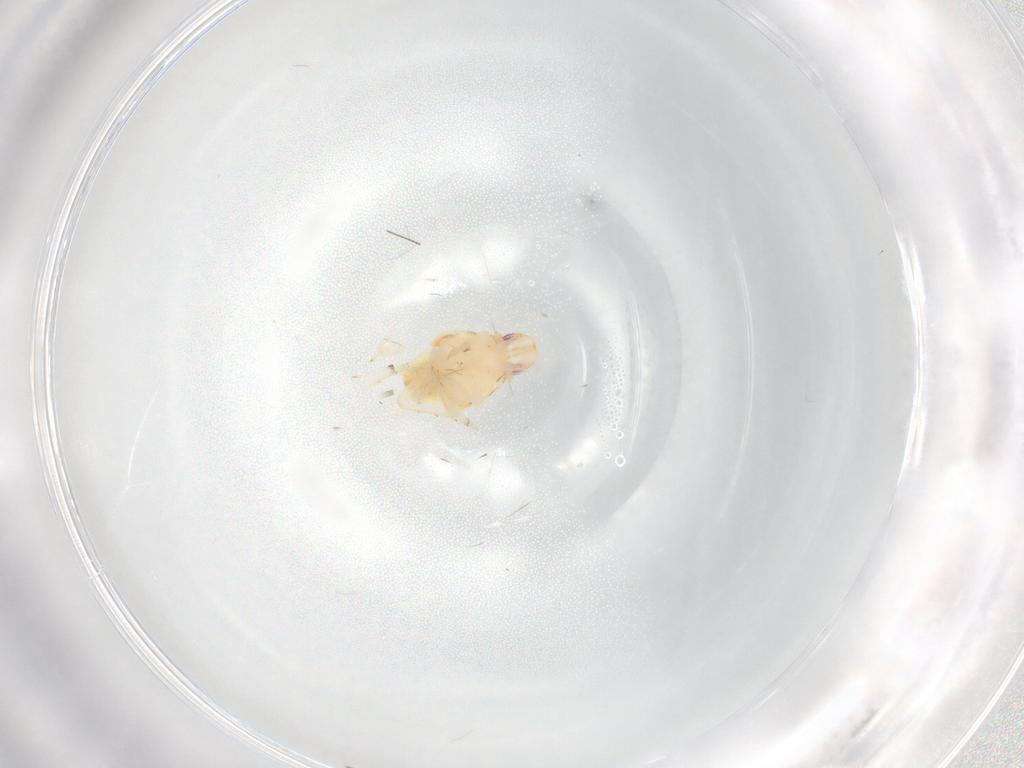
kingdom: Animalia
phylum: Arthropoda
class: Insecta
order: Hemiptera
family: Flatidae
